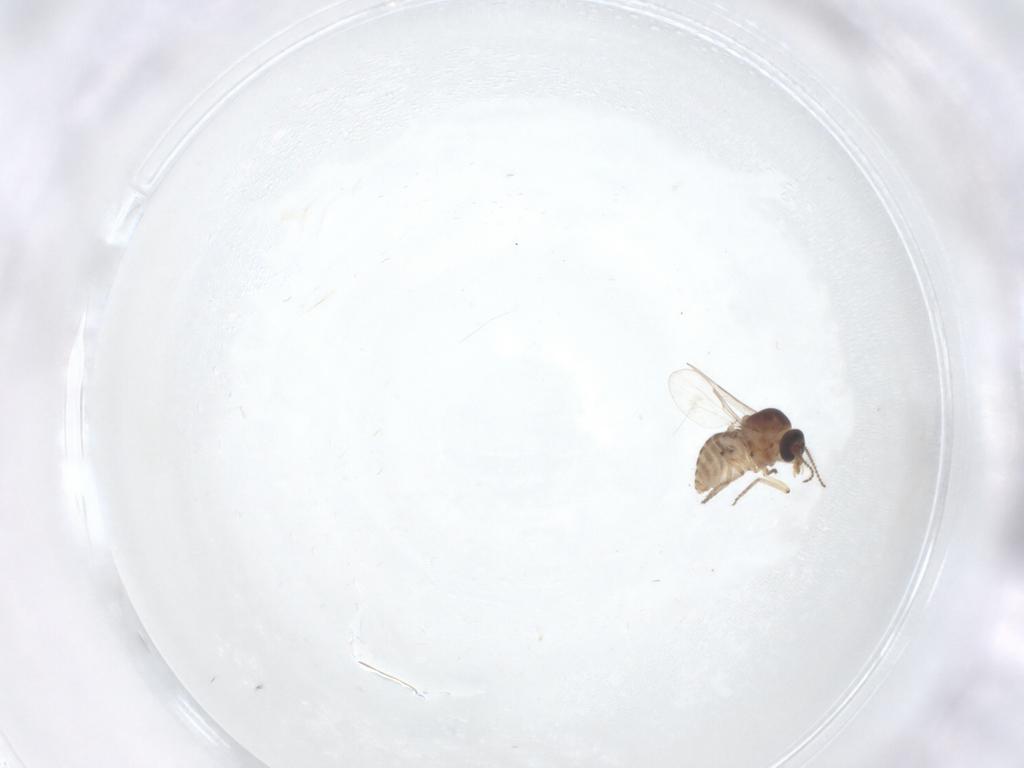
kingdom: Animalia
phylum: Arthropoda
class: Insecta
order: Diptera
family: Ceratopogonidae
